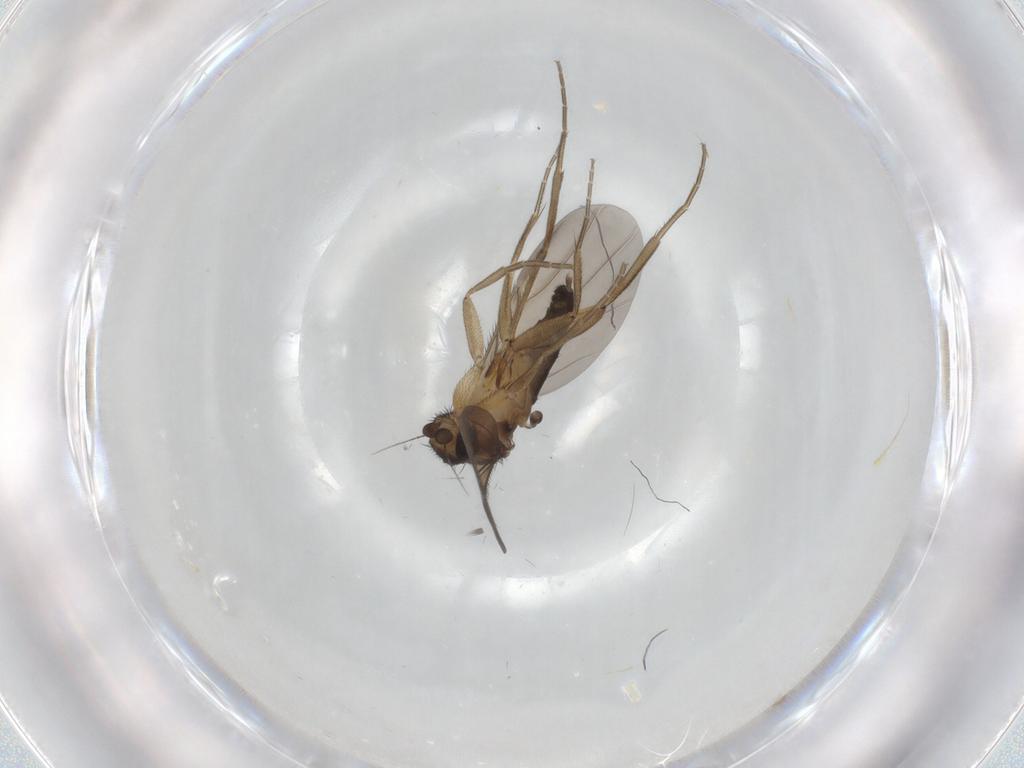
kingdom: Animalia
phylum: Arthropoda
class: Insecta
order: Diptera
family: Phoridae
